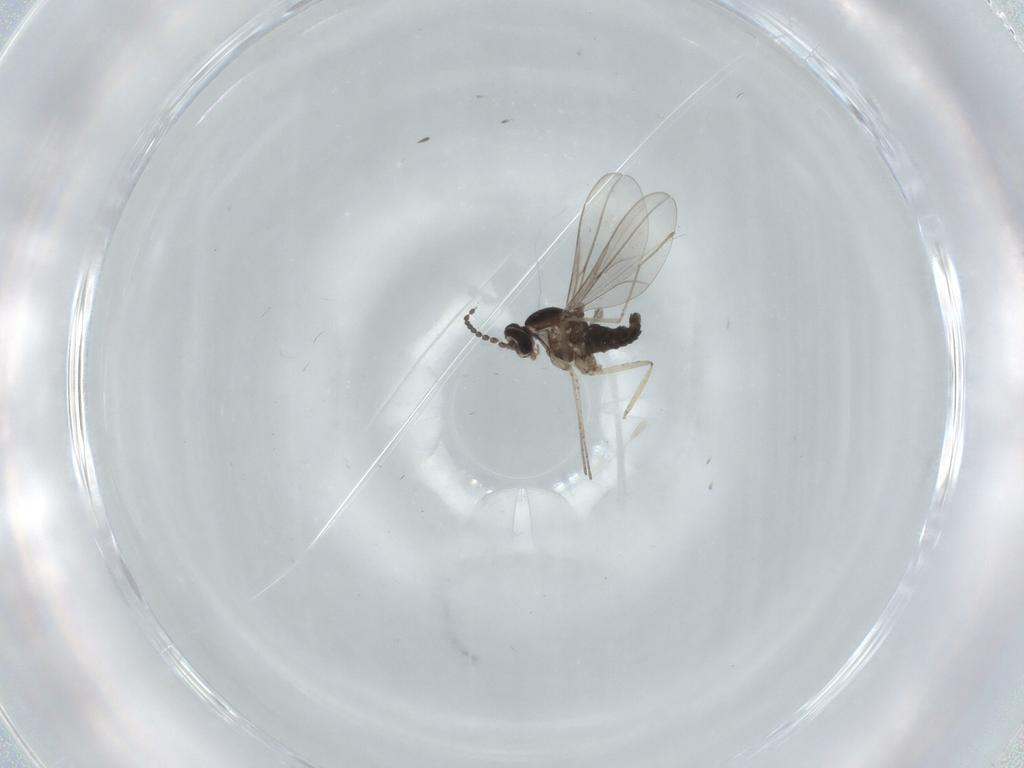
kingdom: Animalia
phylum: Arthropoda
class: Insecta
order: Diptera
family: Cecidomyiidae
